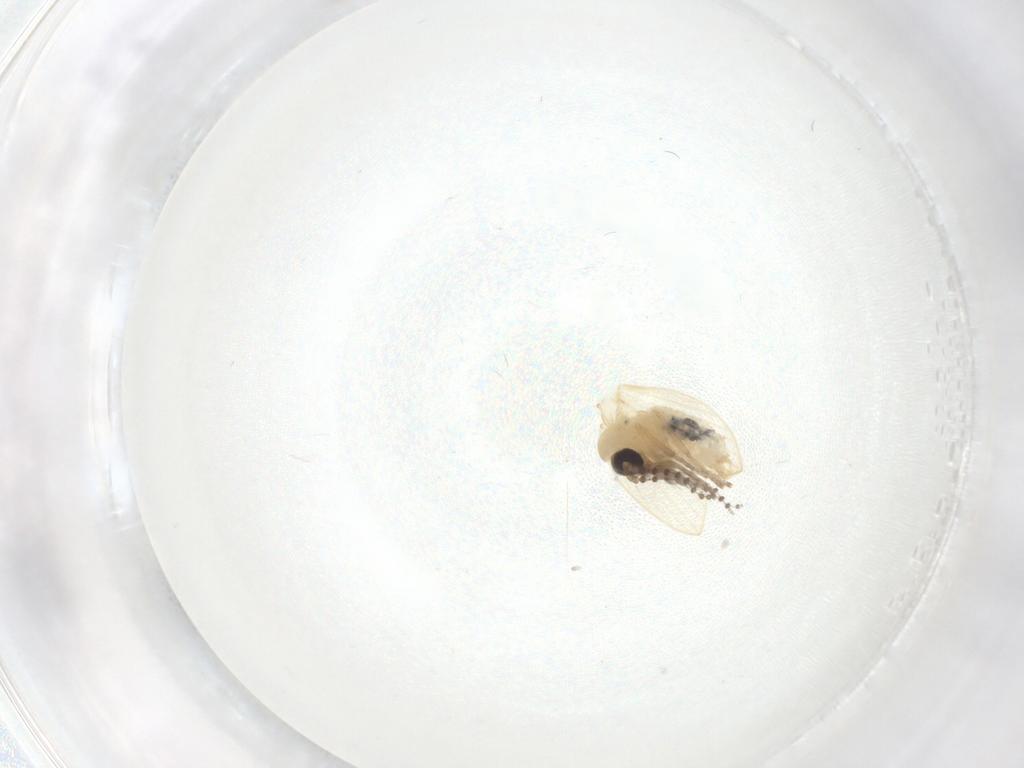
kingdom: Animalia
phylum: Arthropoda
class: Insecta
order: Diptera
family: Psychodidae
